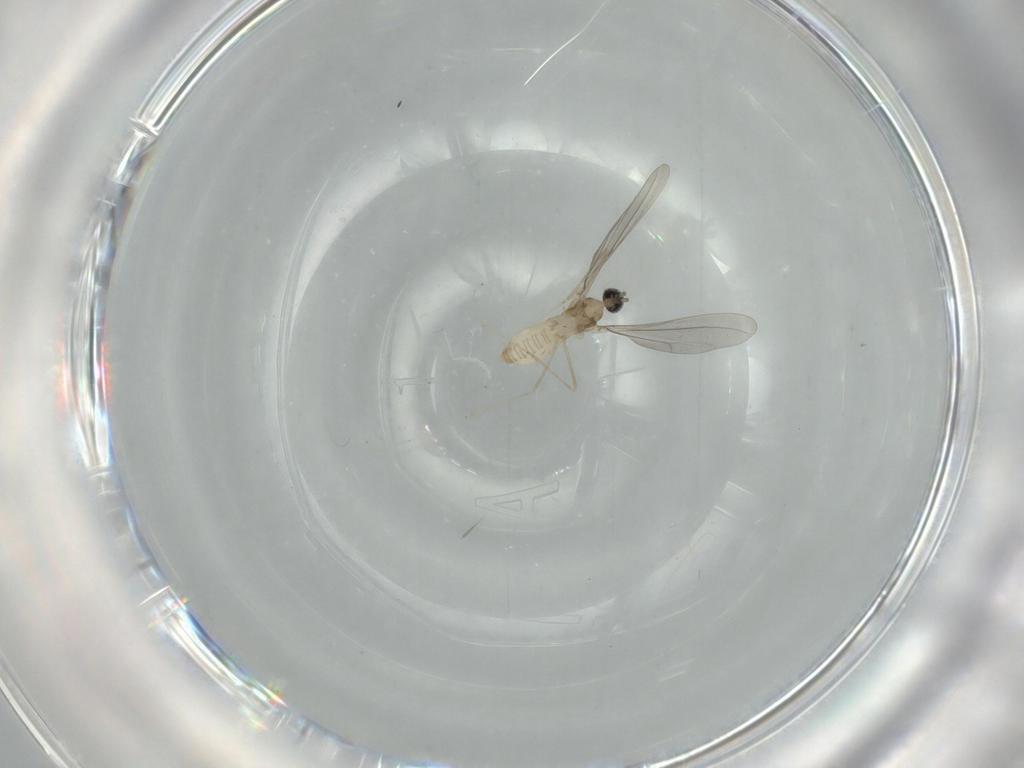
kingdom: Animalia
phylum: Arthropoda
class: Insecta
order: Diptera
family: Cecidomyiidae
